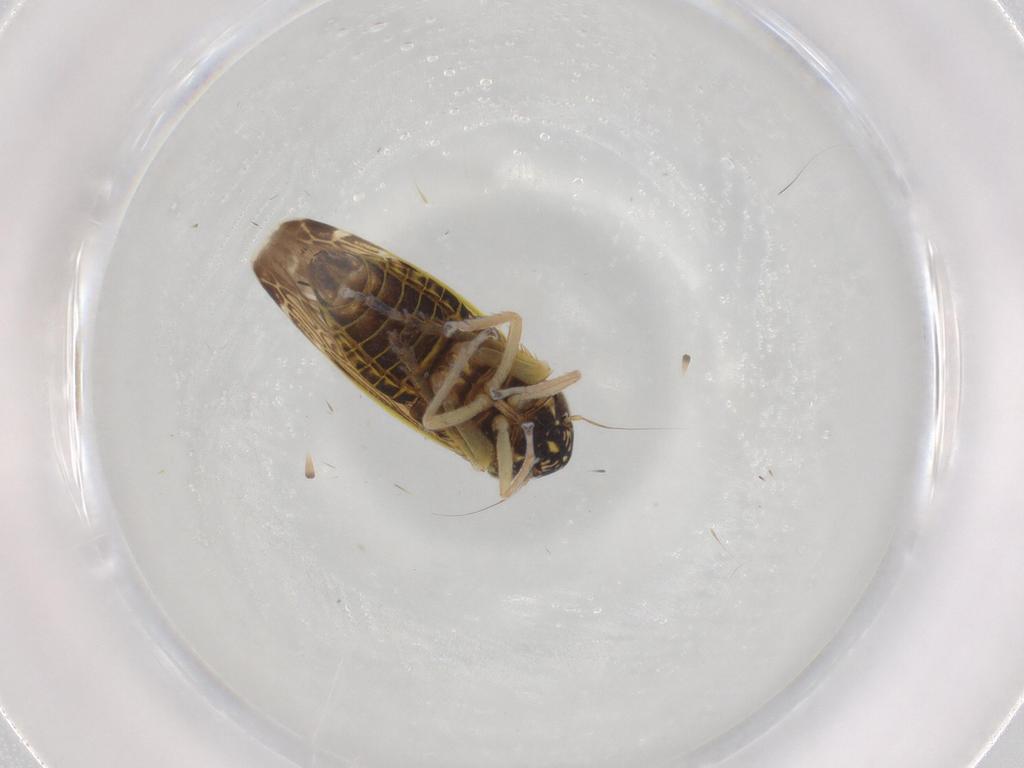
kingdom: Animalia
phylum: Arthropoda
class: Insecta
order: Hemiptera
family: Cicadellidae
